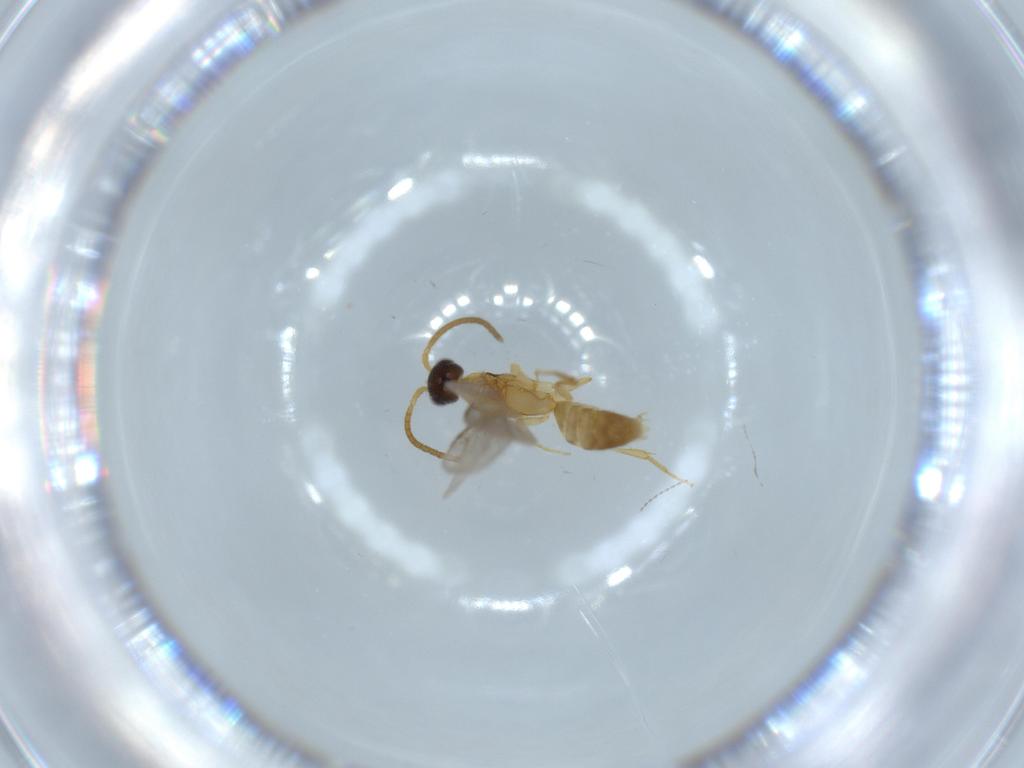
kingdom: Animalia
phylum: Arthropoda
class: Insecta
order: Hymenoptera
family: Bethylidae
